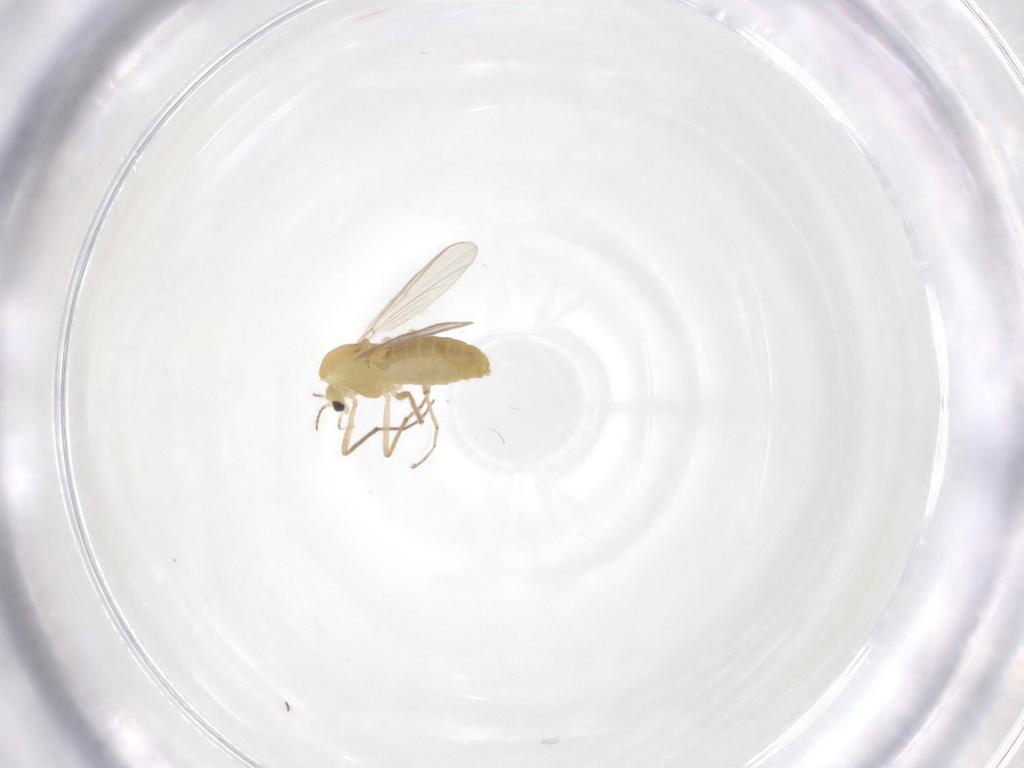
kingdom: Animalia
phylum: Arthropoda
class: Insecta
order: Diptera
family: Chironomidae
